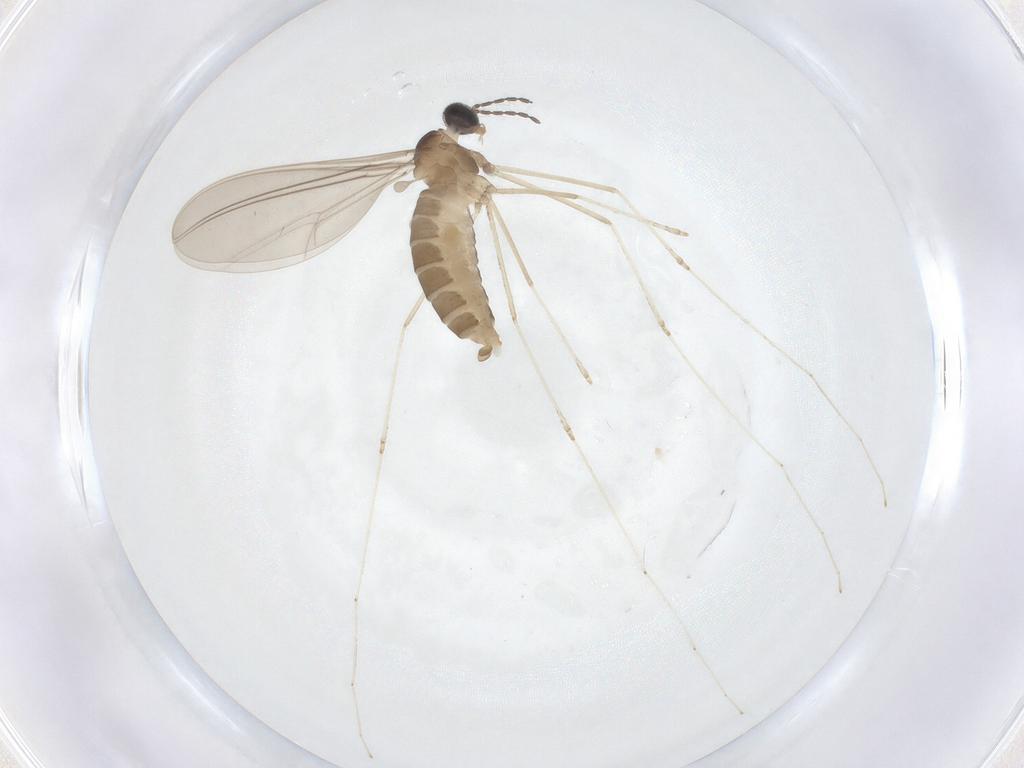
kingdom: Animalia
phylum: Arthropoda
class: Insecta
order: Diptera
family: Cecidomyiidae
